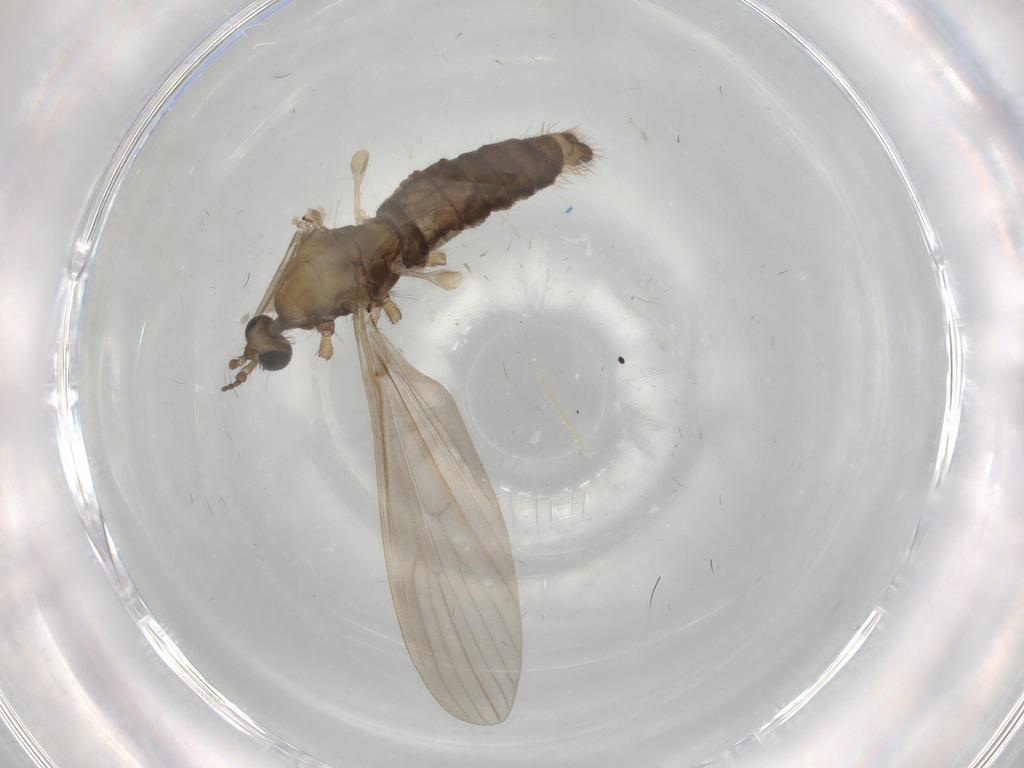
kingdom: Animalia
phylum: Arthropoda
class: Insecta
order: Diptera
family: Limoniidae
